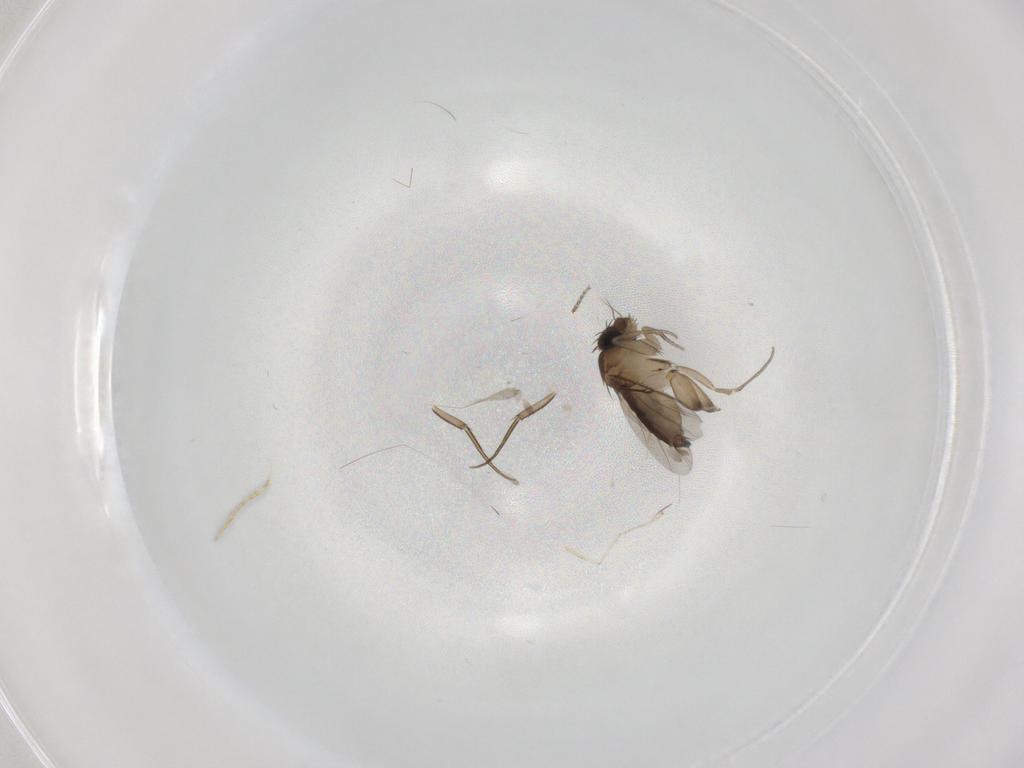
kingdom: Animalia
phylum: Arthropoda
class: Insecta
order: Diptera
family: Phoridae
